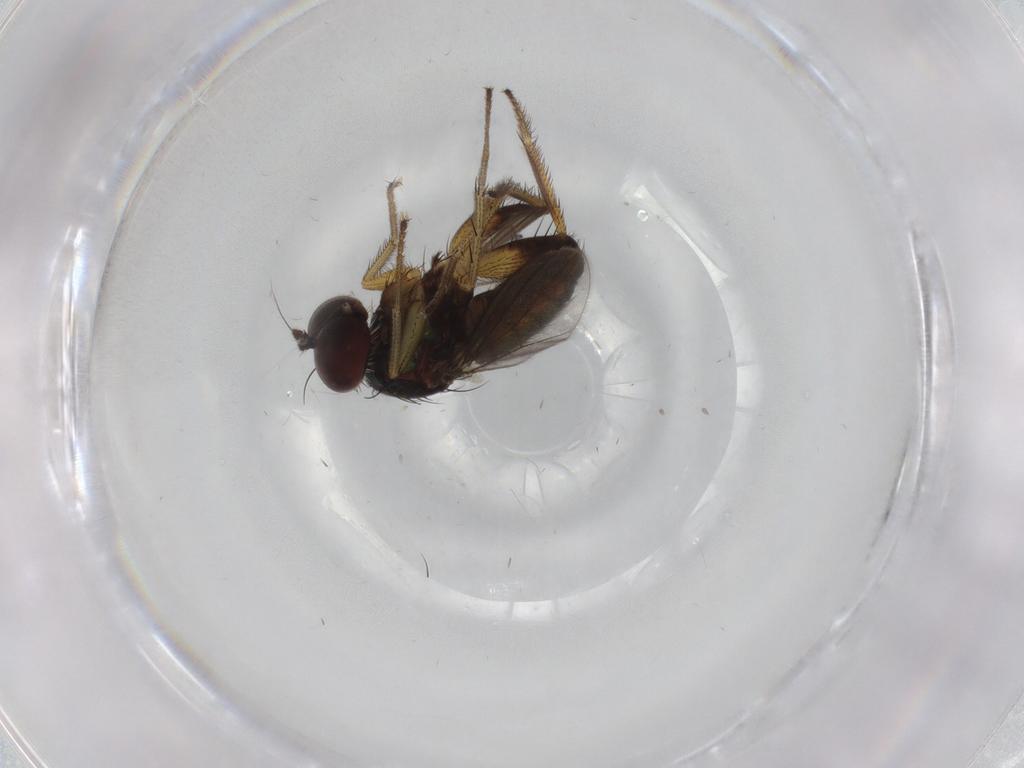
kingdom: Animalia
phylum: Arthropoda
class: Insecta
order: Diptera
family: Dolichopodidae
